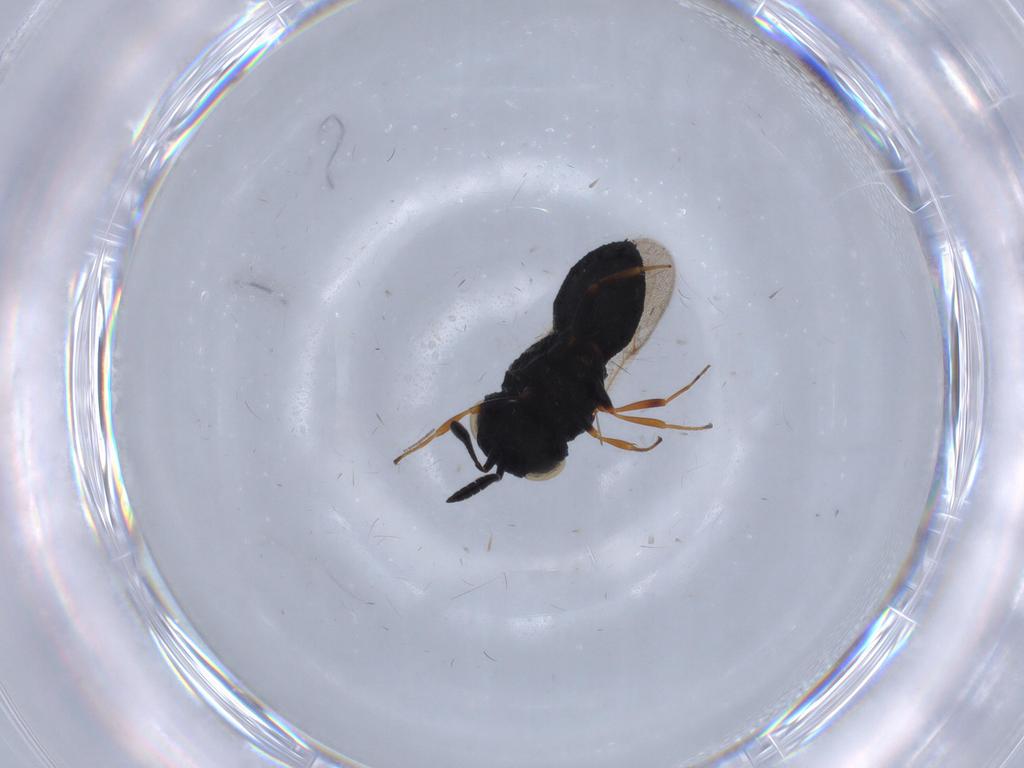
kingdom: Animalia
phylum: Arthropoda
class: Insecta
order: Hymenoptera
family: Scelionidae
